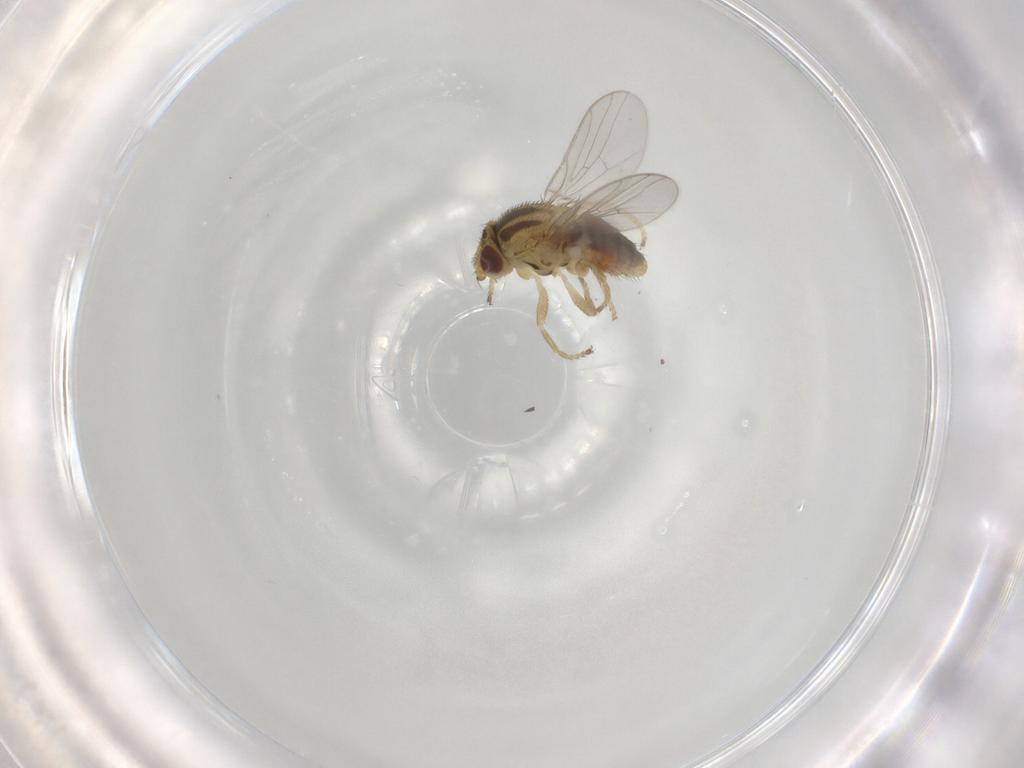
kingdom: Animalia
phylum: Arthropoda
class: Insecta
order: Diptera
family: Chloropidae
